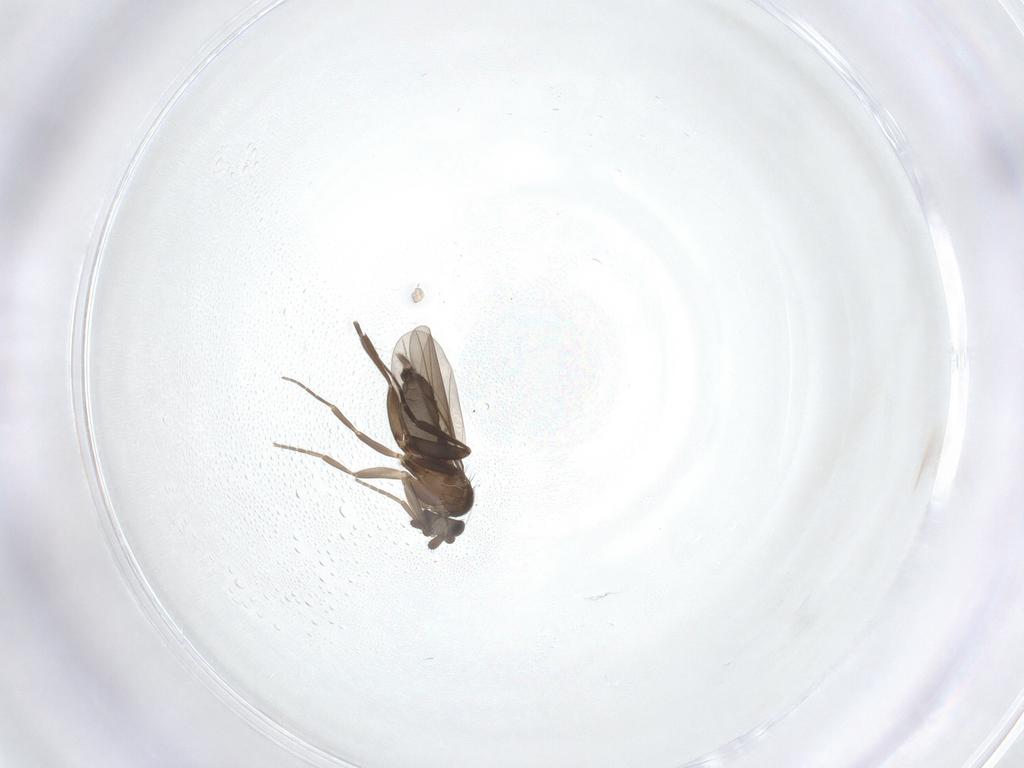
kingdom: Animalia
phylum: Arthropoda
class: Insecta
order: Diptera
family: Phoridae
